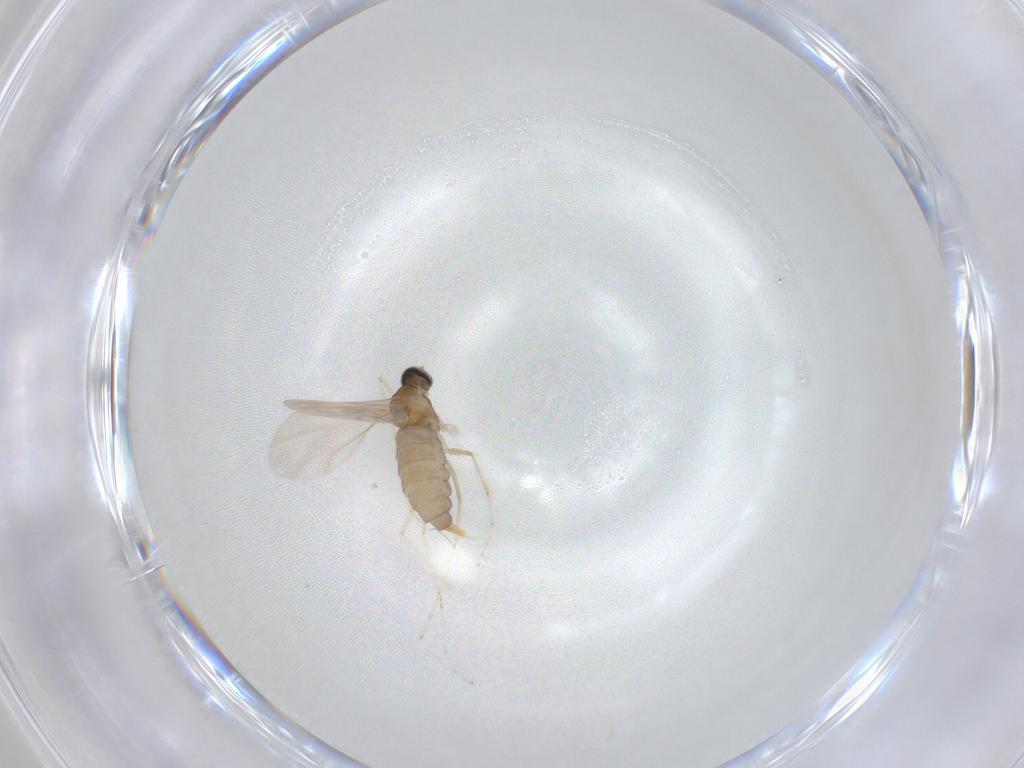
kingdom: Animalia
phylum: Arthropoda
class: Insecta
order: Diptera
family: Cecidomyiidae
